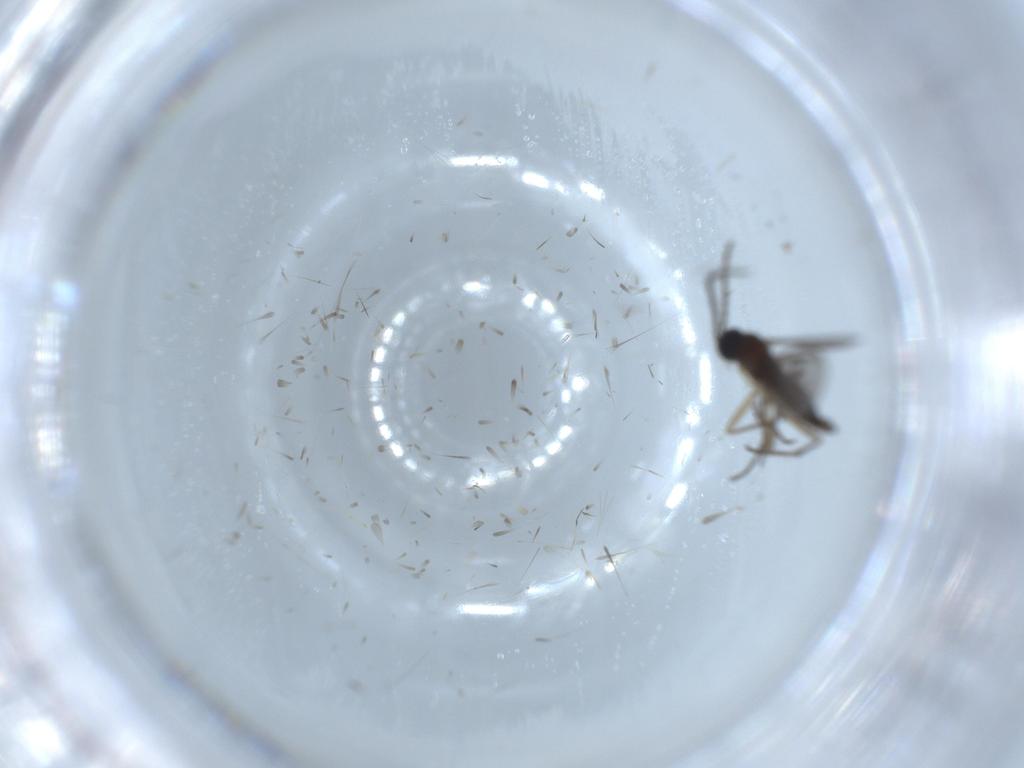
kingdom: Animalia
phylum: Arthropoda
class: Insecta
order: Diptera
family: Sciaridae
